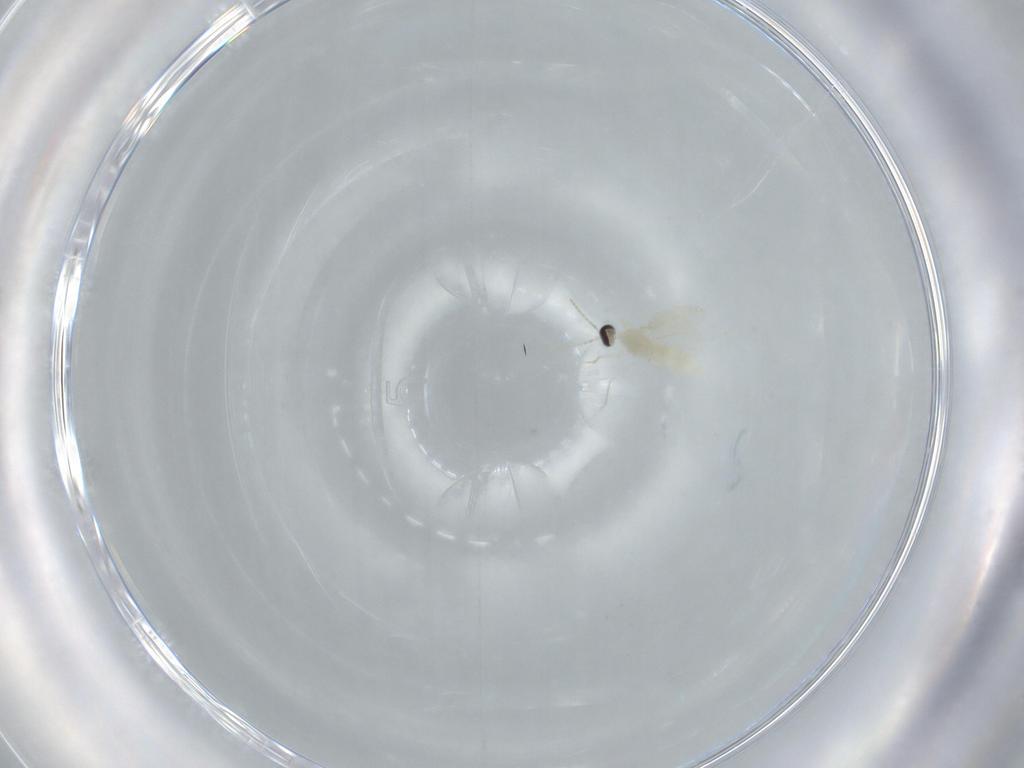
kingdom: Animalia
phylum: Arthropoda
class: Insecta
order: Diptera
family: Cecidomyiidae
